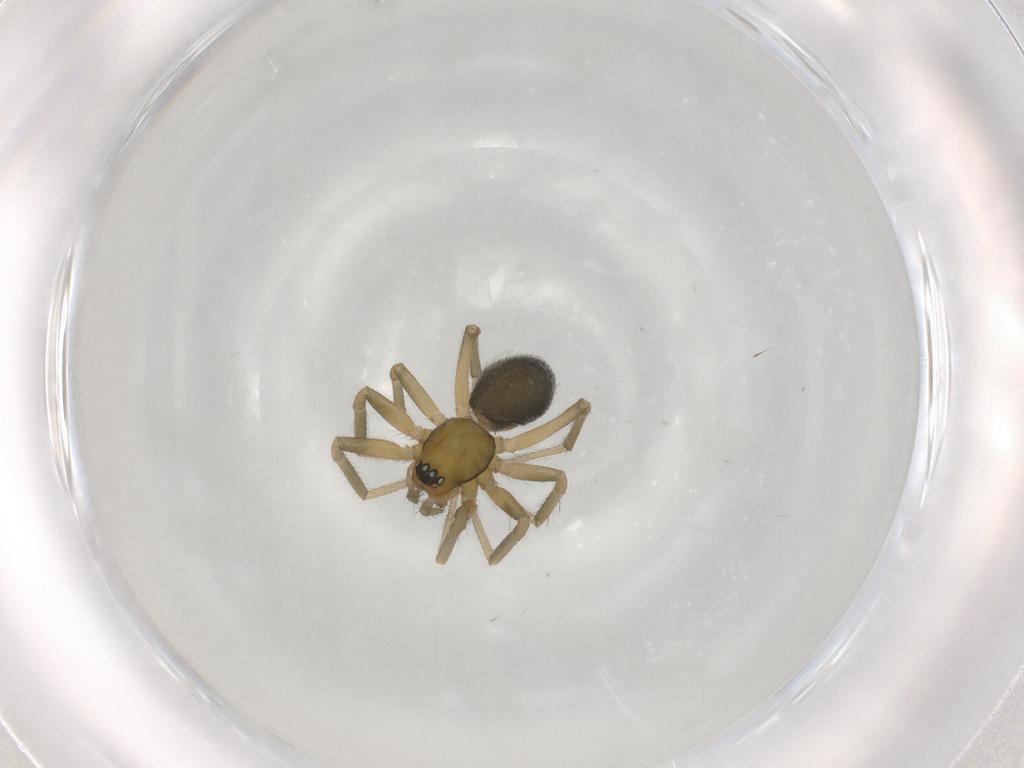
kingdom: Animalia
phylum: Arthropoda
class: Arachnida
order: Araneae
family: Linyphiidae
